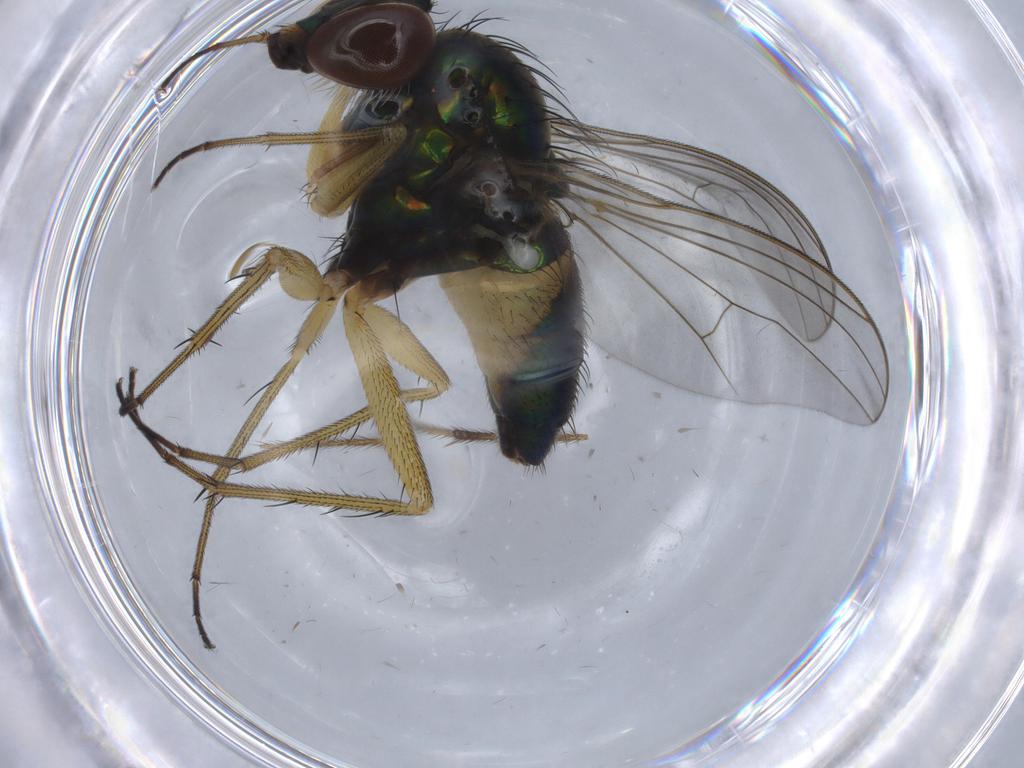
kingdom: Animalia
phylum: Arthropoda
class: Insecta
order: Diptera
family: Limoniidae
